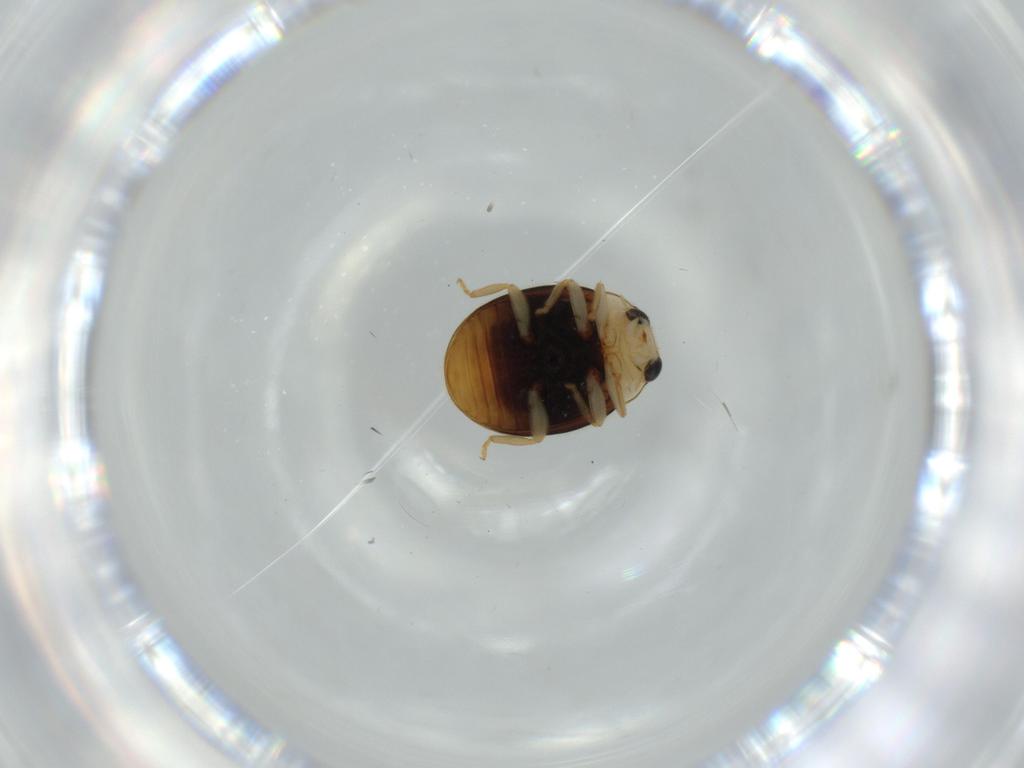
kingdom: Animalia
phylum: Arthropoda
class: Insecta
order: Coleoptera
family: Eucnemidae
